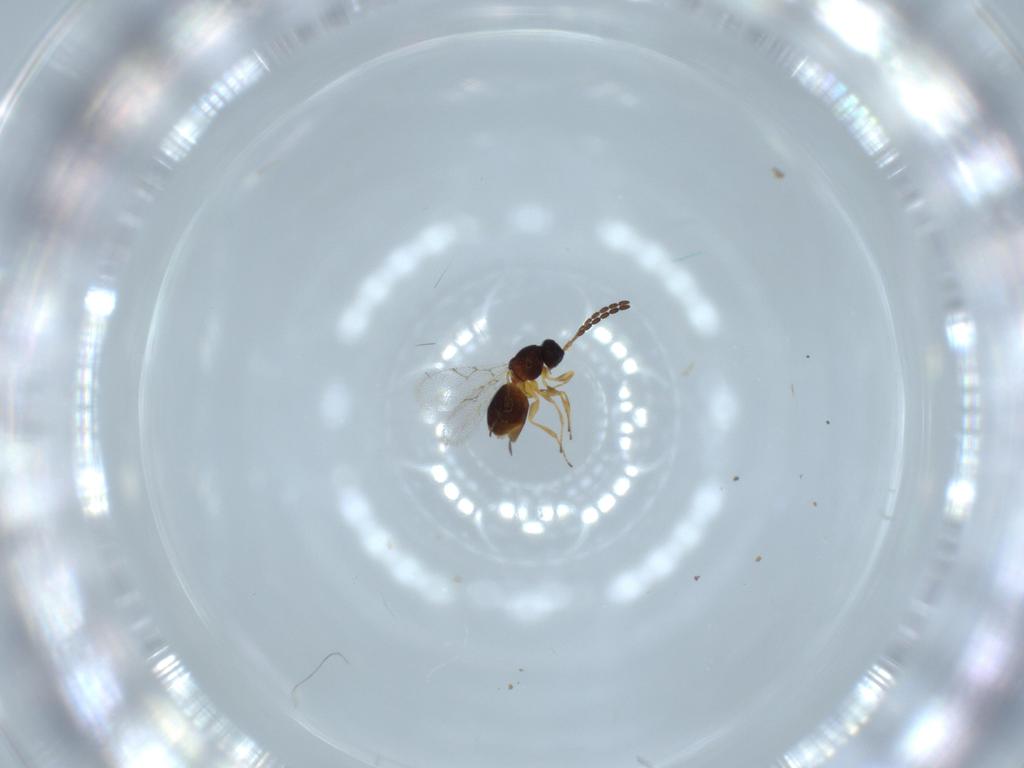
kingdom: Animalia
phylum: Arthropoda
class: Insecta
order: Hymenoptera
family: Figitidae
